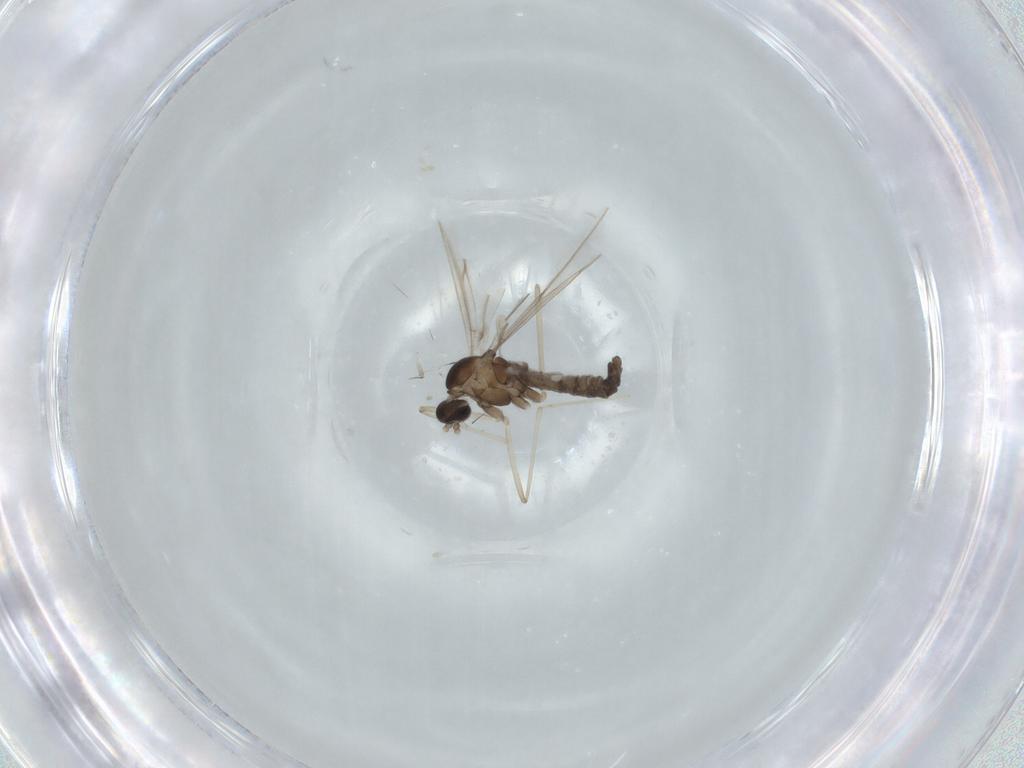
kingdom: Animalia
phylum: Arthropoda
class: Insecta
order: Diptera
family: Cecidomyiidae
